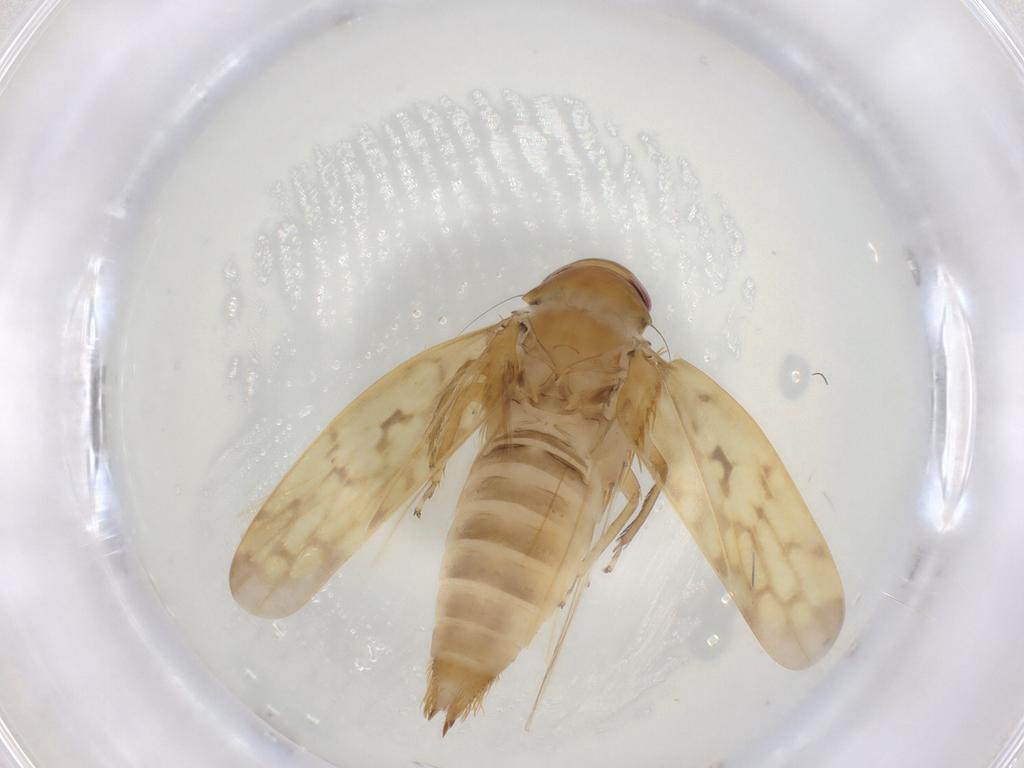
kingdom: Animalia
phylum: Arthropoda
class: Insecta
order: Hemiptera
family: Cicadellidae
